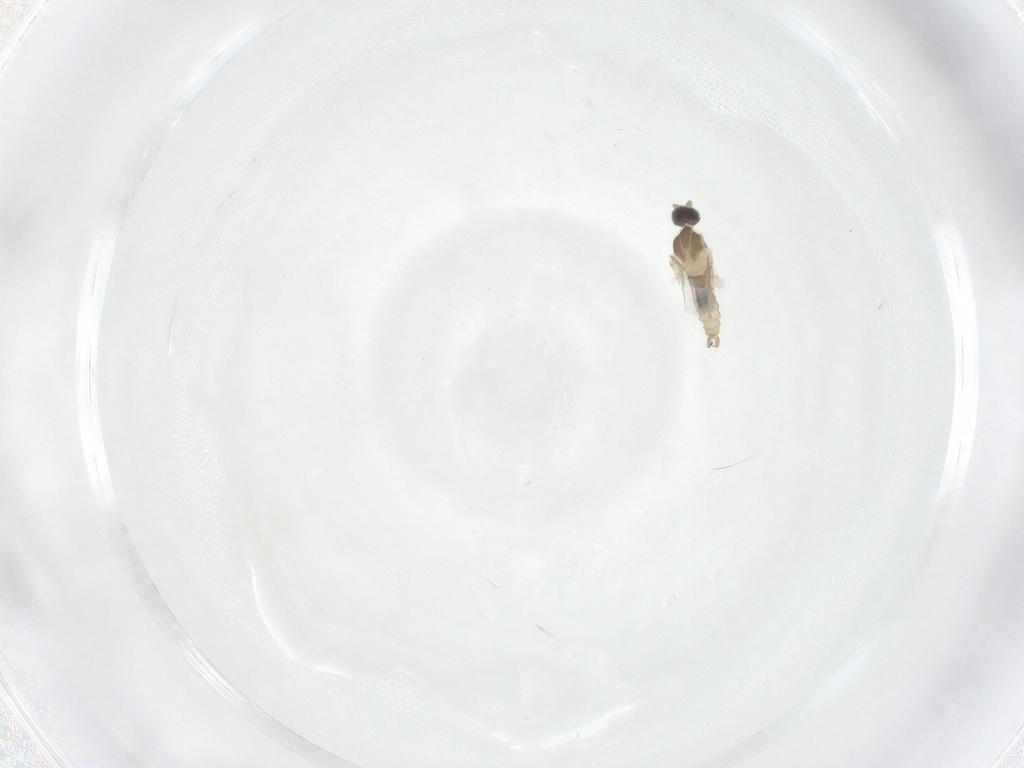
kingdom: Animalia
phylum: Arthropoda
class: Insecta
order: Diptera
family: Cecidomyiidae
